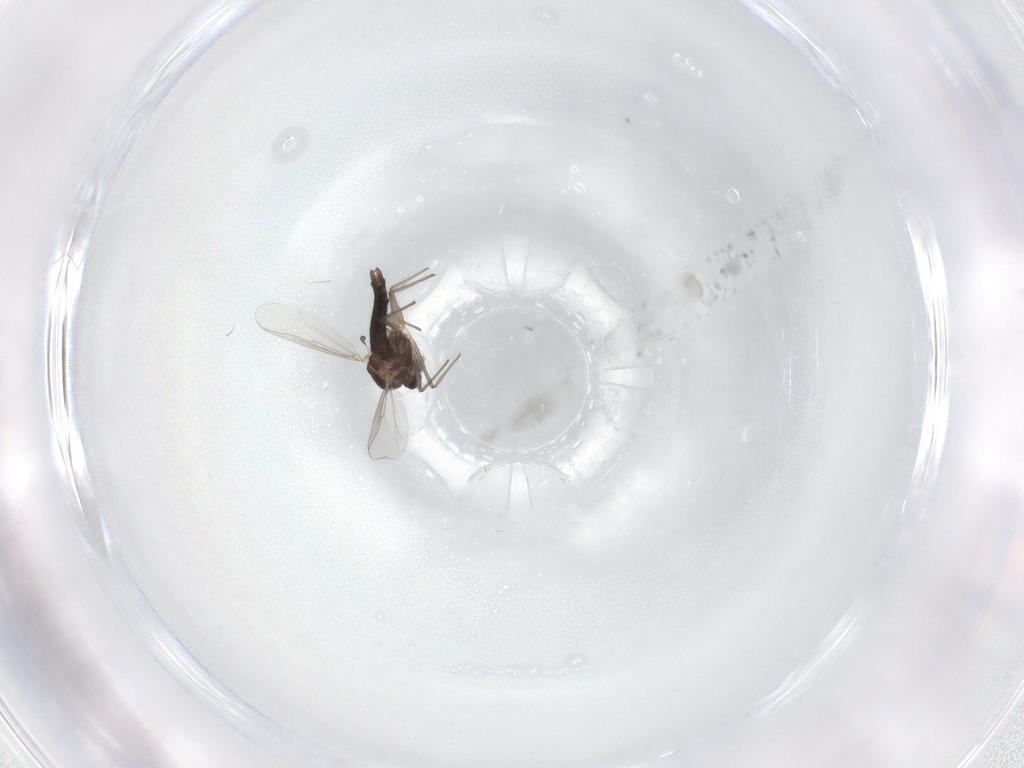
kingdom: Animalia
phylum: Arthropoda
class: Insecta
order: Diptera
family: Chironomidae
